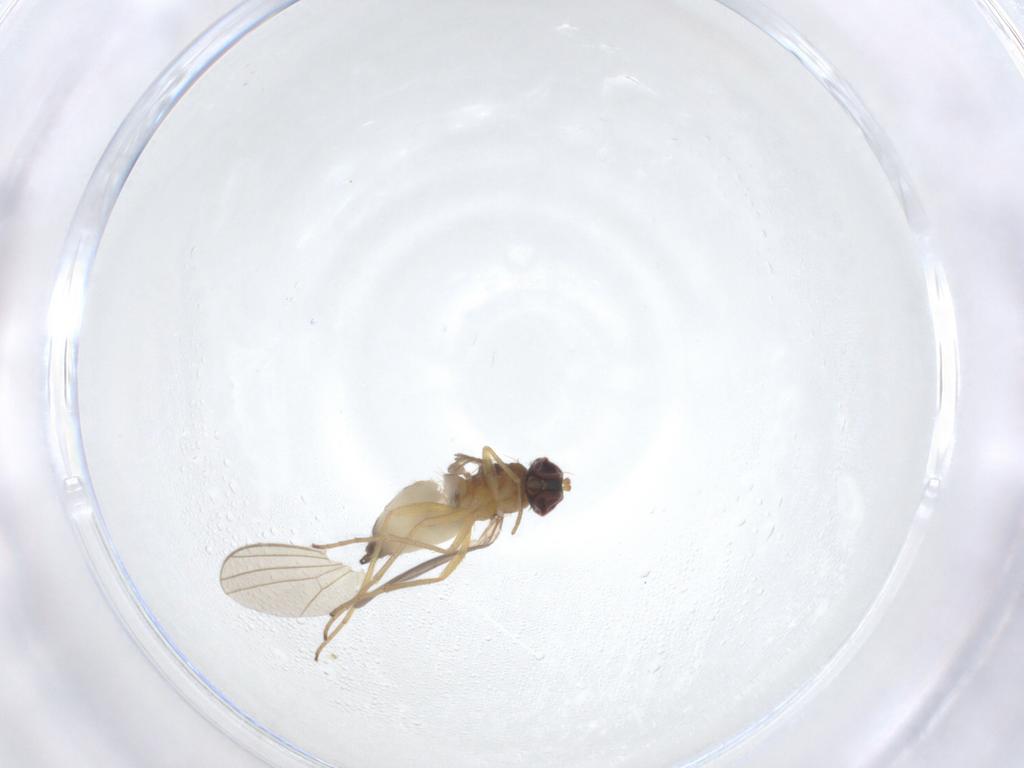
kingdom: Animalia
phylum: Arthropoda
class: Insecta
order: Diptera
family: Dolichopodidae
